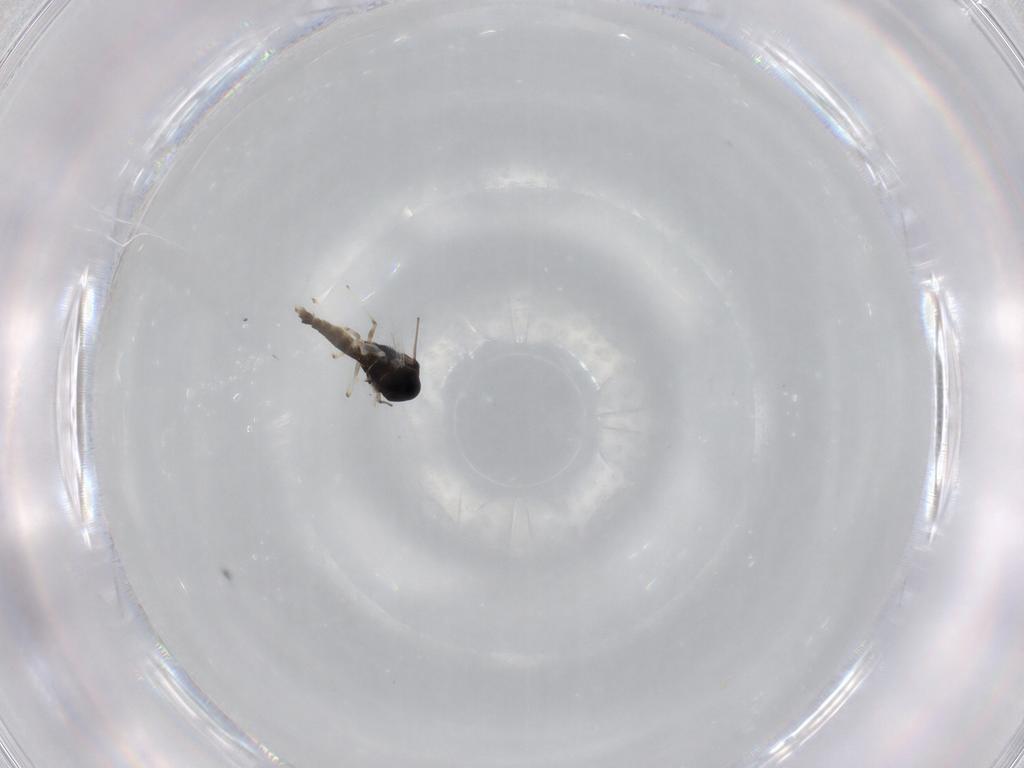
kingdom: Animalia
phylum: Arthropoda
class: Insecta
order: Diptera
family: Chironomidae
